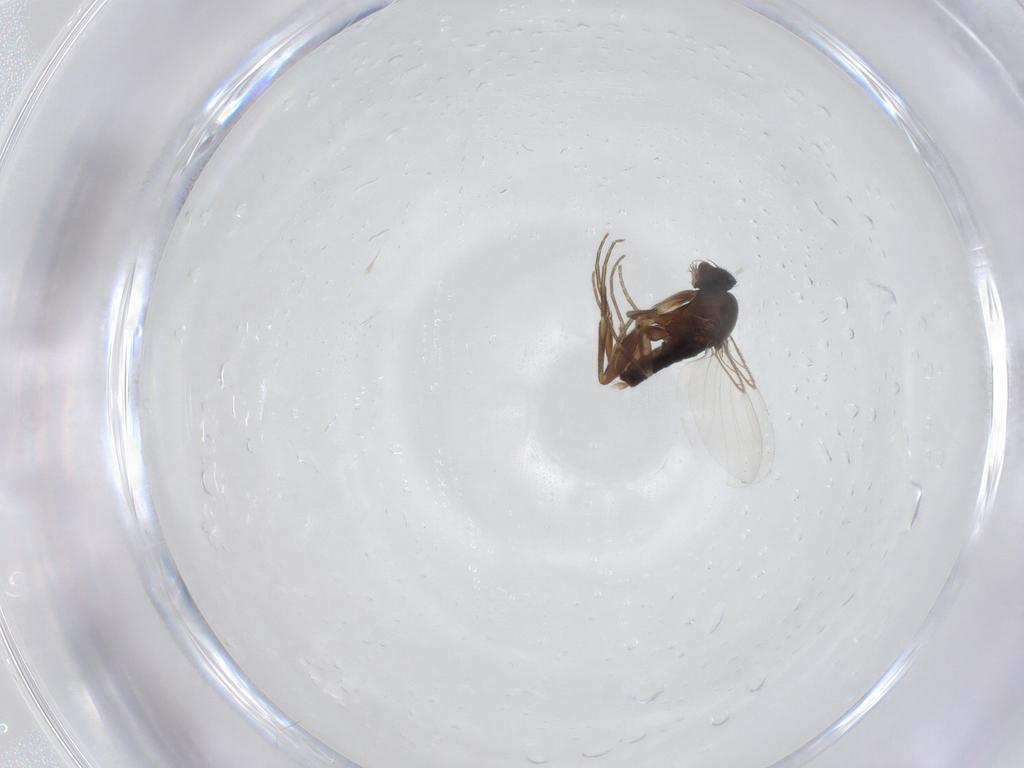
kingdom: Animalia
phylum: Arthropoda
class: Insecta
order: Diptera
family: Phoridae
